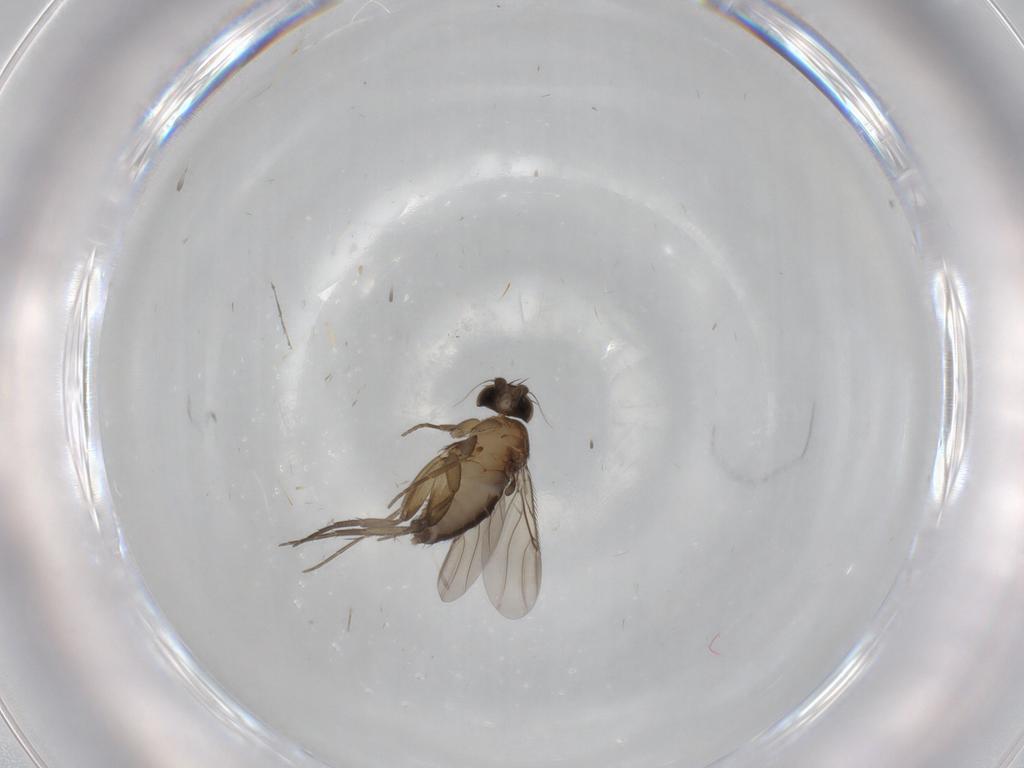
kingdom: Animalia
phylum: Arthropoda
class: Insecta
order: Diptera
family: Phoridae
